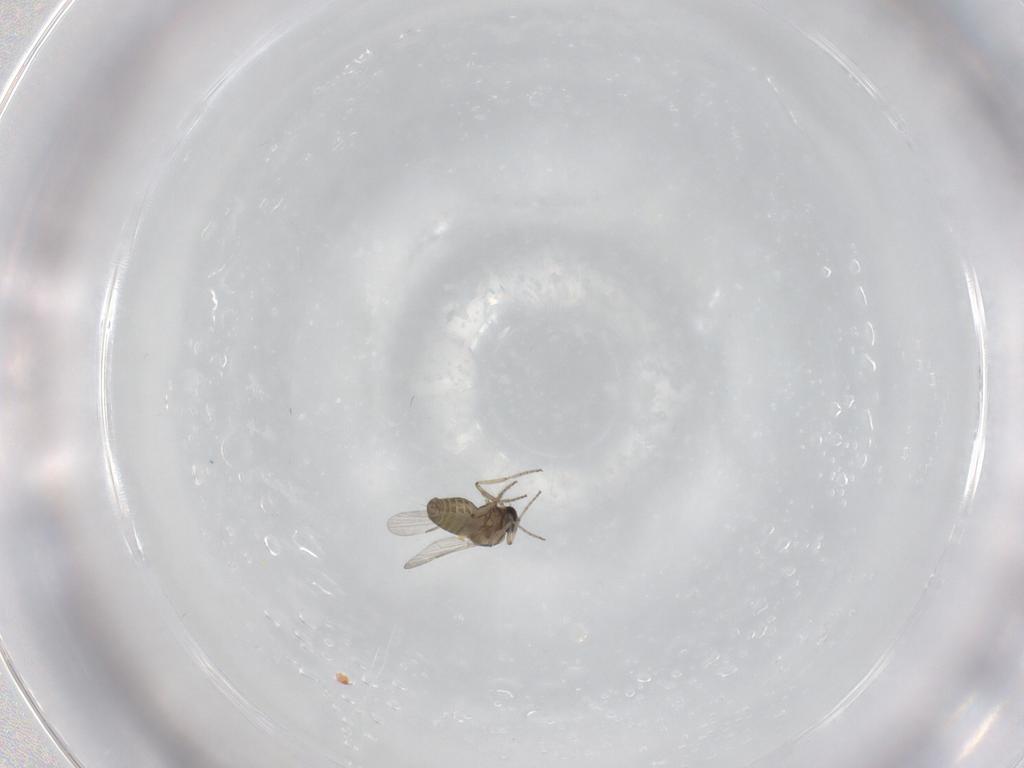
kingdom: Animalia
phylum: Arthropoda
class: Insecta
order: Diptera
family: Ceratopogonidae
